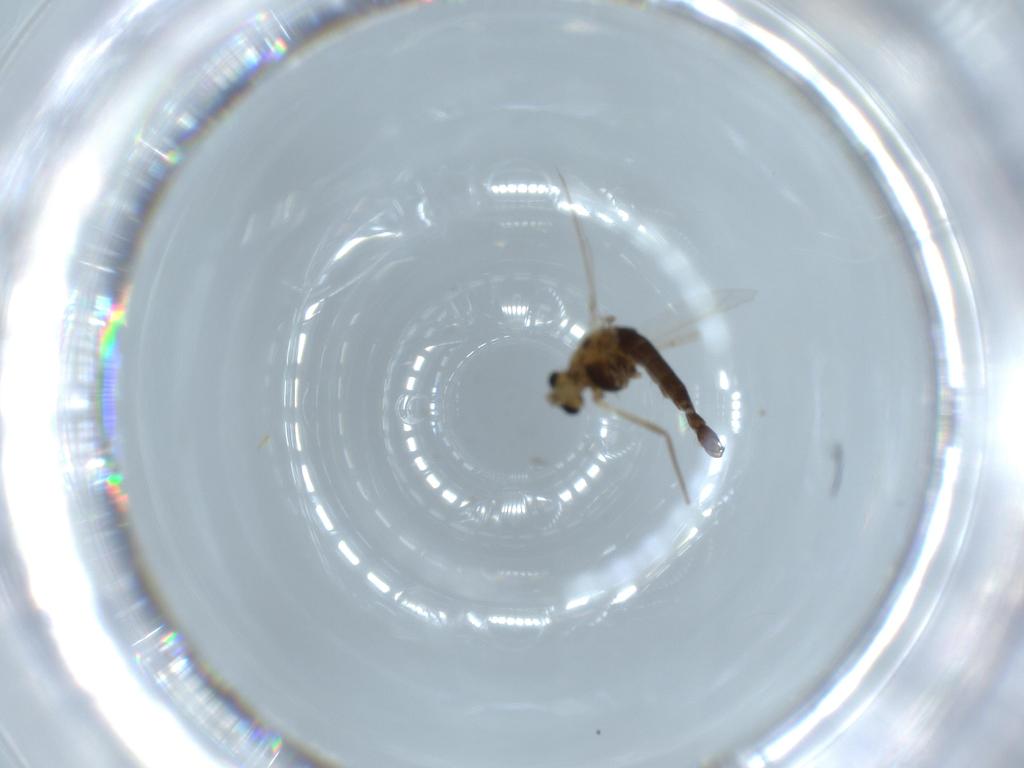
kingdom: Animalia
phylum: Arthropoda
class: Insecta
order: Diptera
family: Chironomidae
